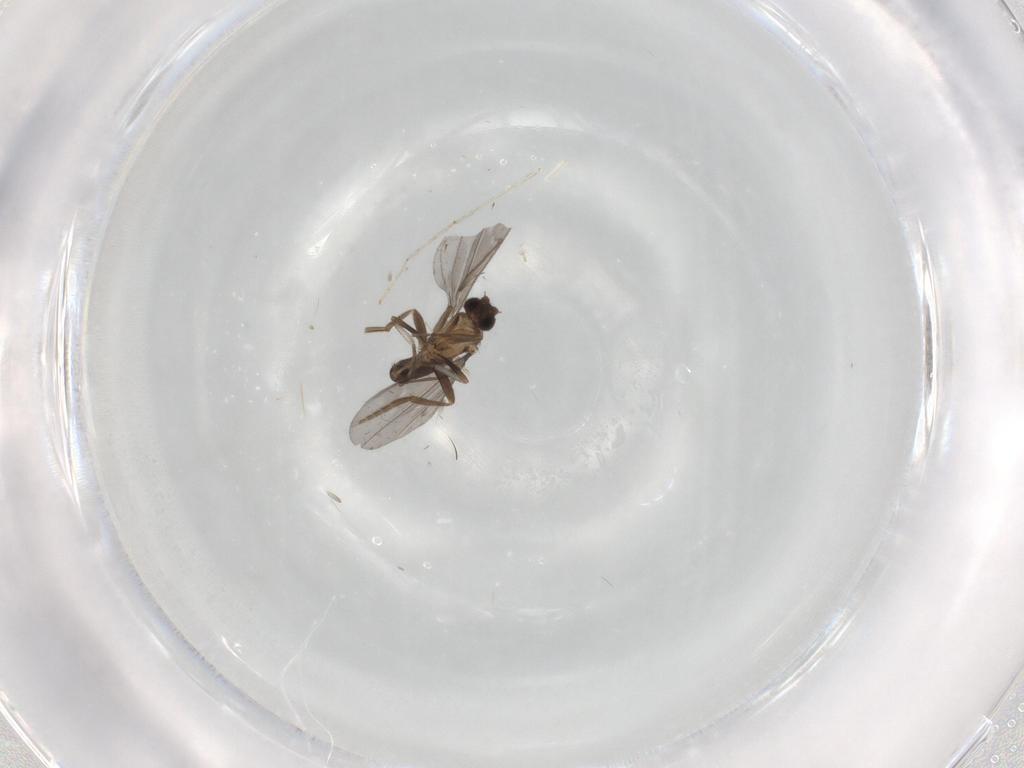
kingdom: Animalia
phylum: Arthropoda
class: Insecta
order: Diptera
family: Phoridae
